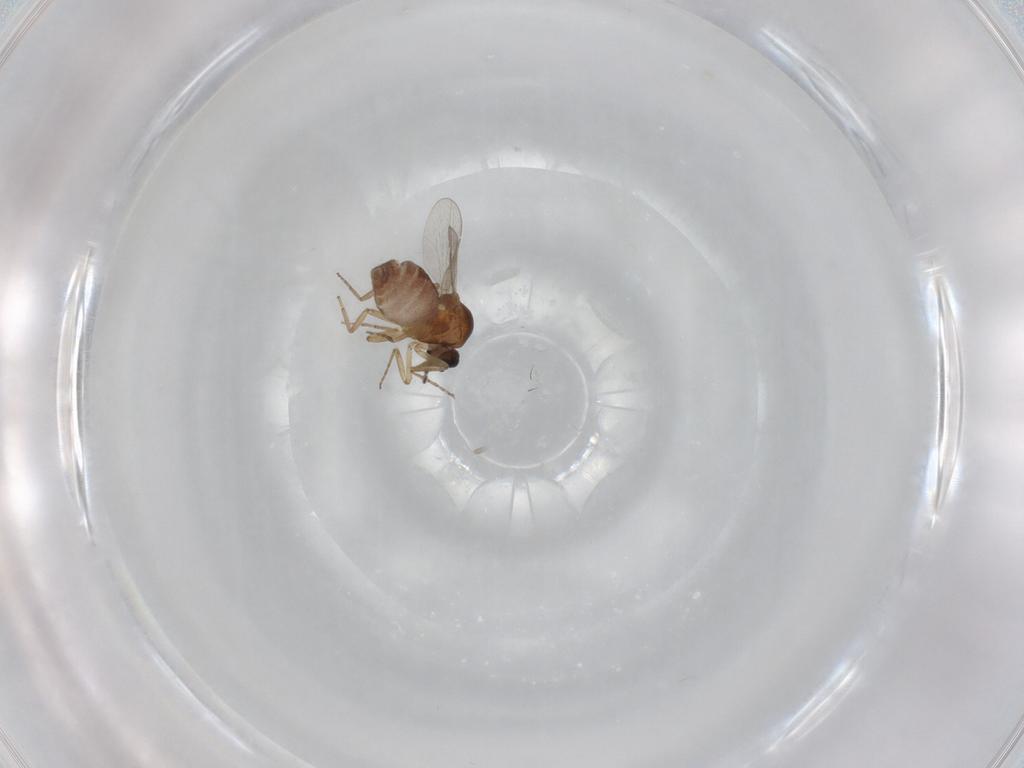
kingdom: Animalia
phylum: Arthropoda
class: Insecta
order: Diptera
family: Ceratopogonidae
